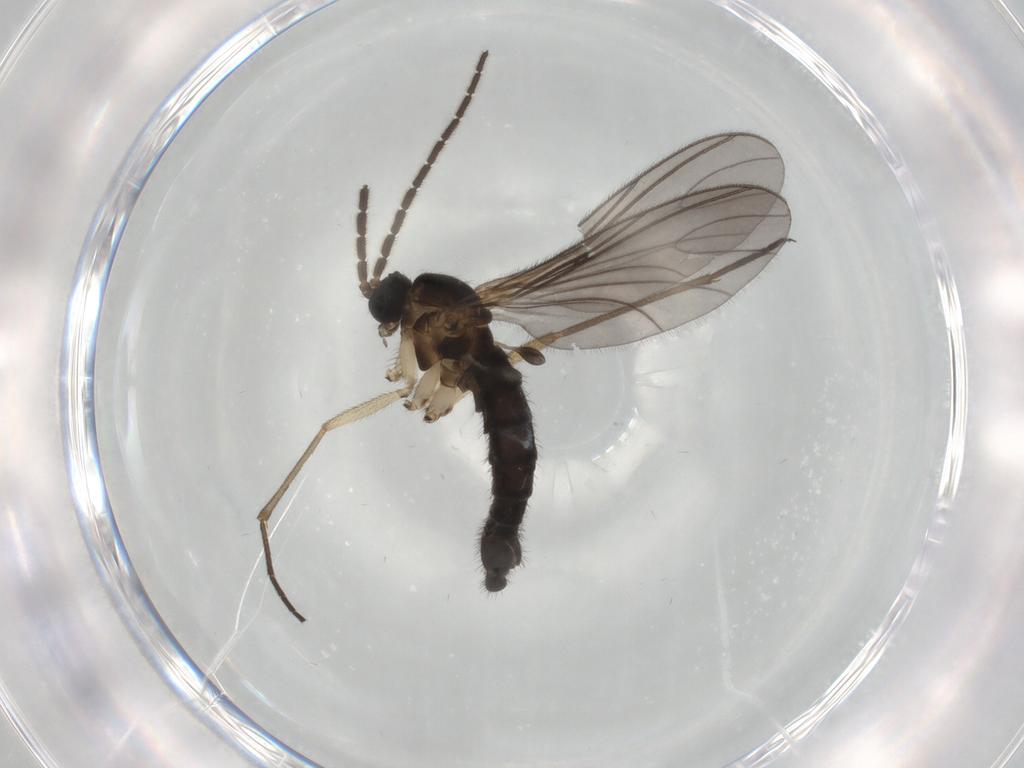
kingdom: Animalia
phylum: Arthropoda
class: Insecta
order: Diptera
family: Sciaridae
